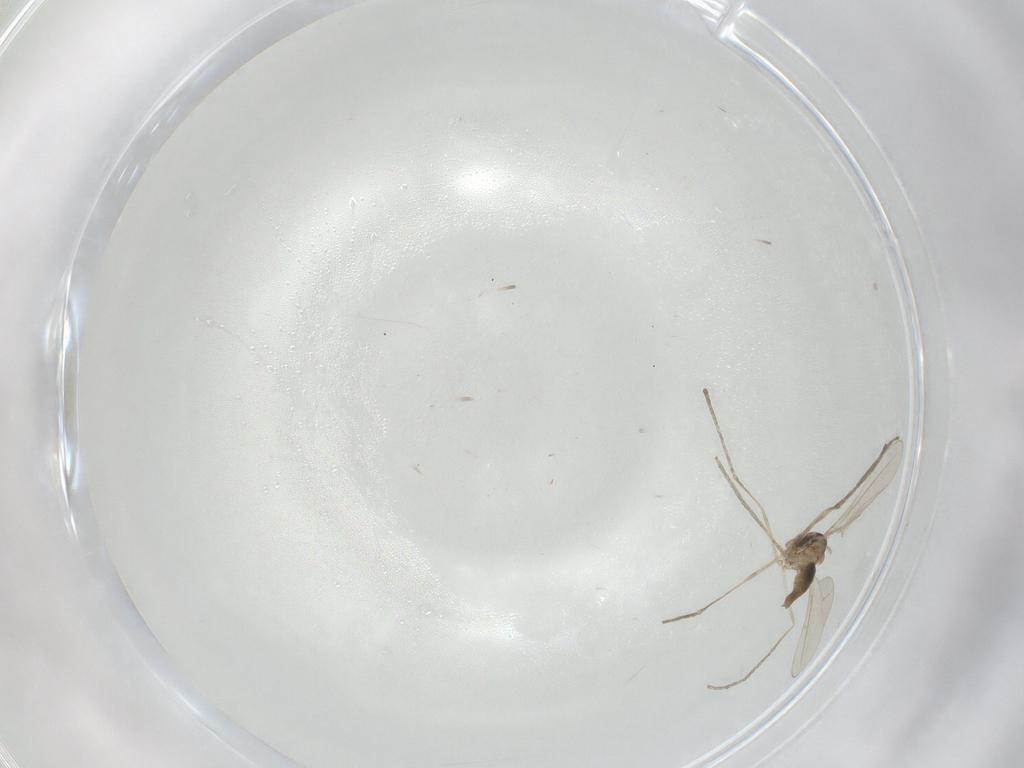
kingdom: Animalia
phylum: Arthropoda
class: Insecta
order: Diptera
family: Cecidomyiidae
